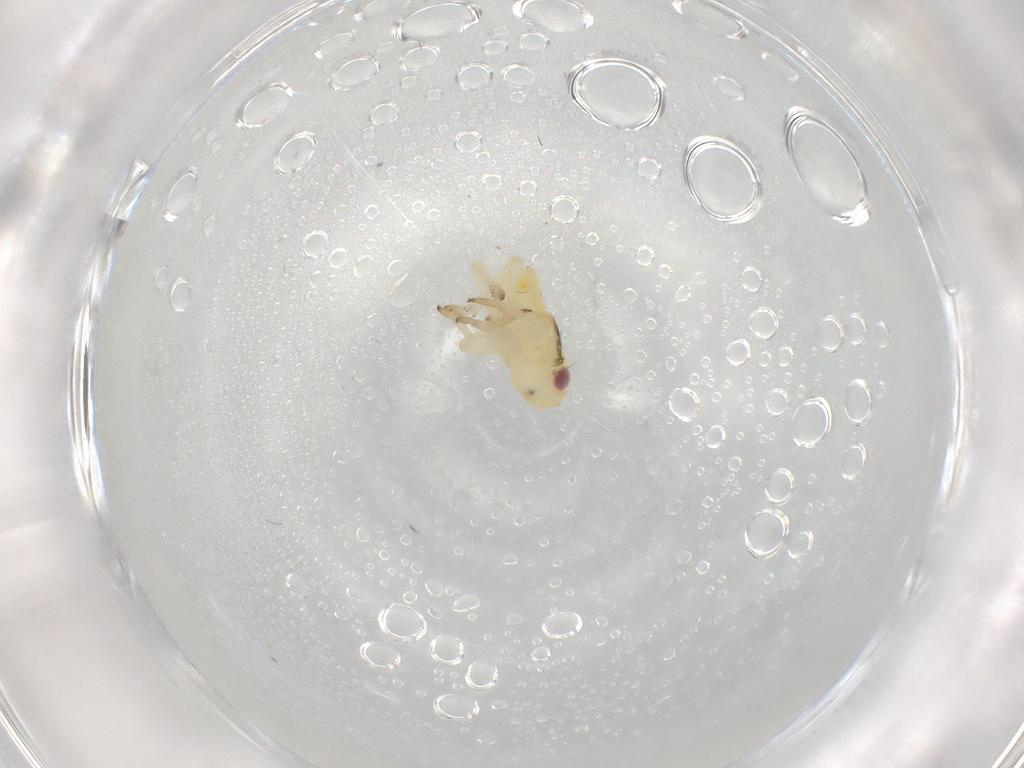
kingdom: Animalia
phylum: Arthropoda
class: Insecta
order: Hemiptera
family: Caliscelidae
